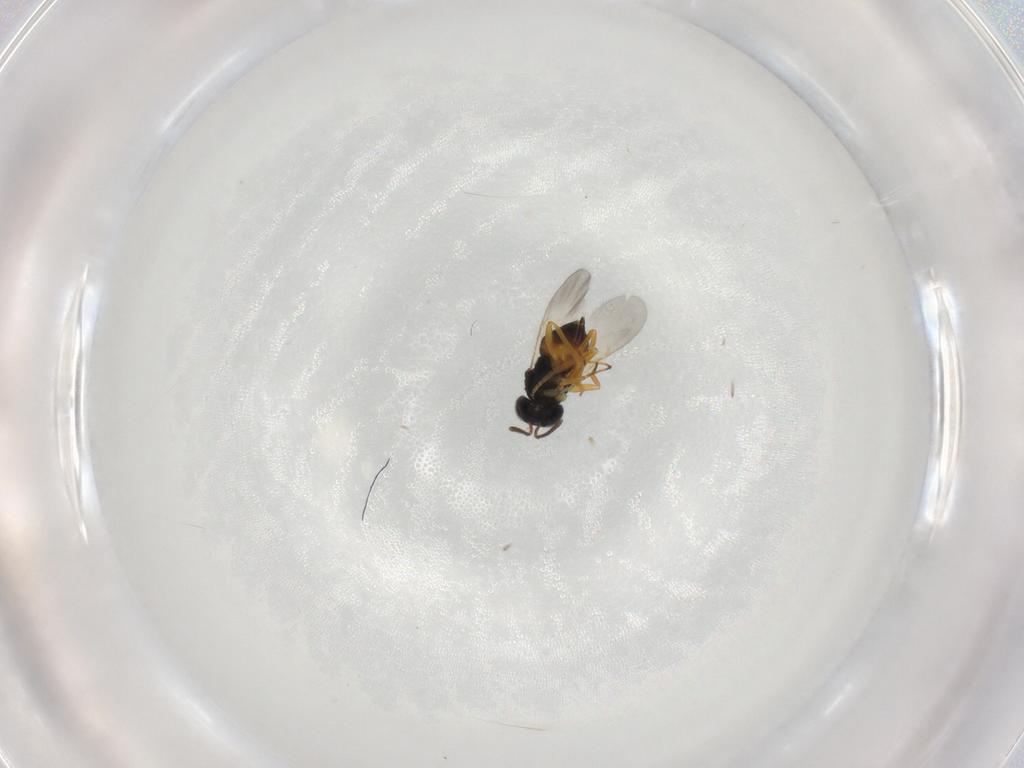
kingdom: Animalia
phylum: Arthropoda
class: Insecta
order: Hymenoptera
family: Encyrtidae
